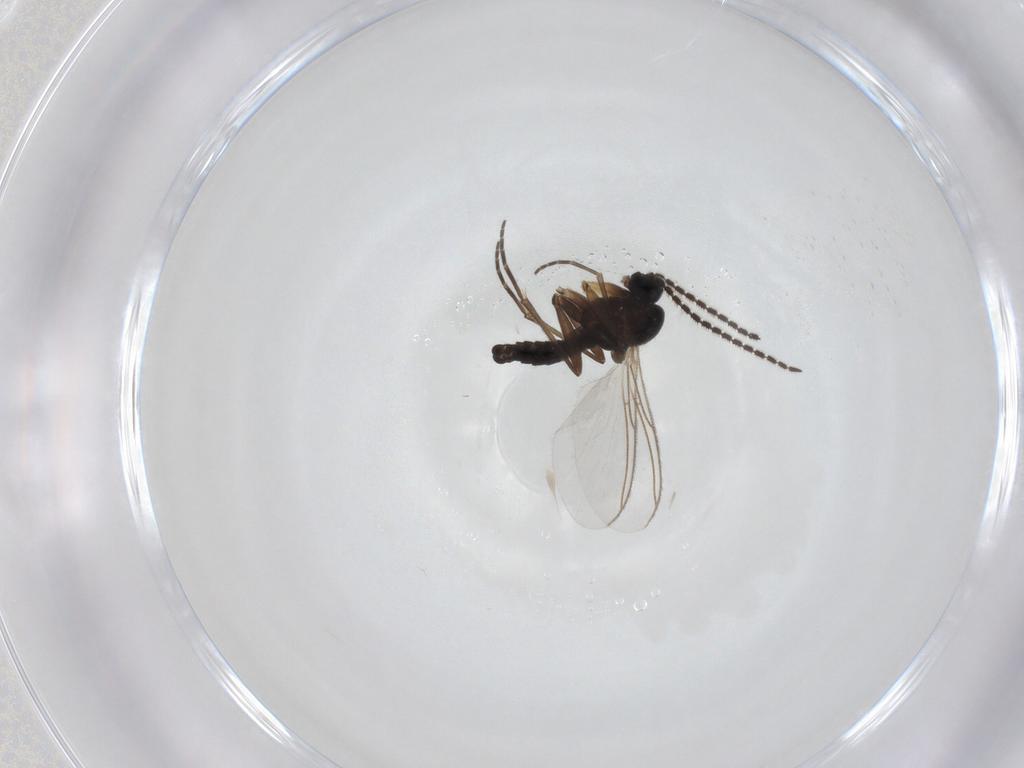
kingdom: Animalia
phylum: Arthropoda
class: Insecta
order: Diptera
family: Sciaridae
